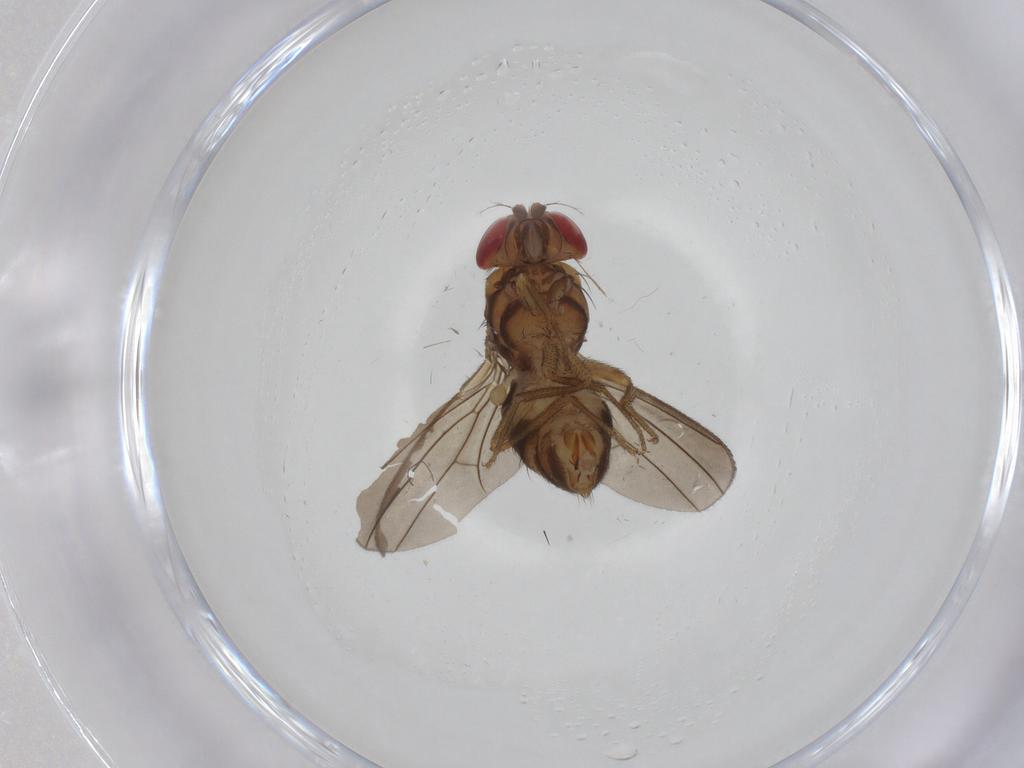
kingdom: Animalia
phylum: Arthropoda
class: Insecta
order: Diptera
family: Drosophilidae
